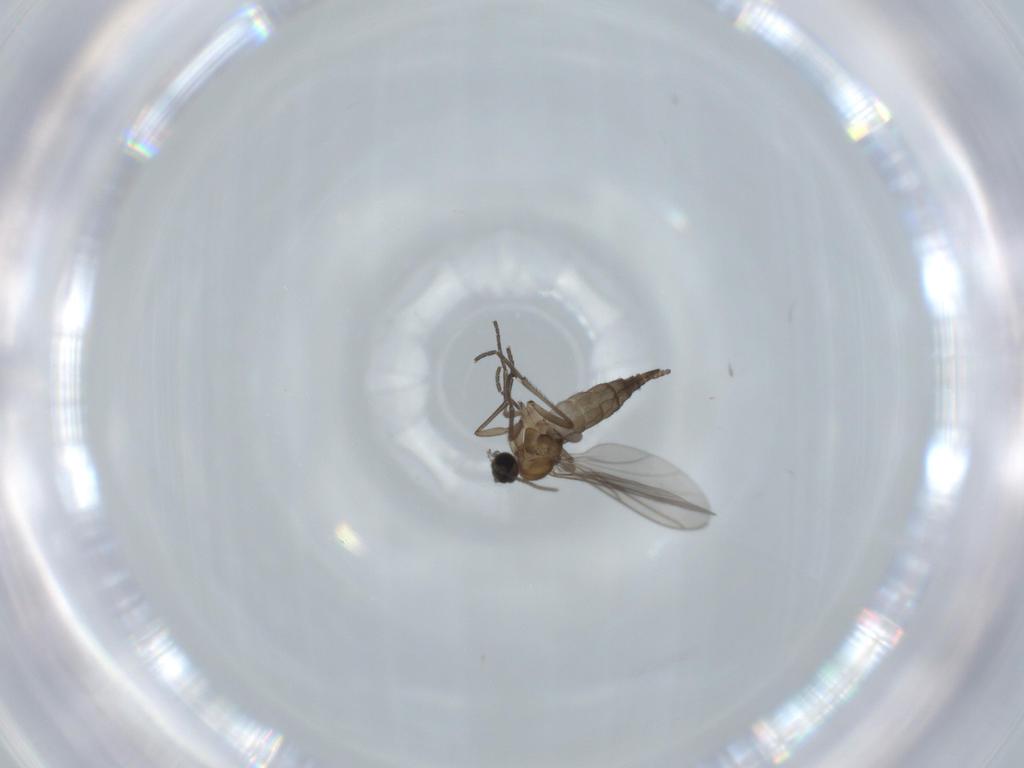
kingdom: Animalia
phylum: Arthropoda
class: Insecta
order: Diptera
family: Sciaridae
